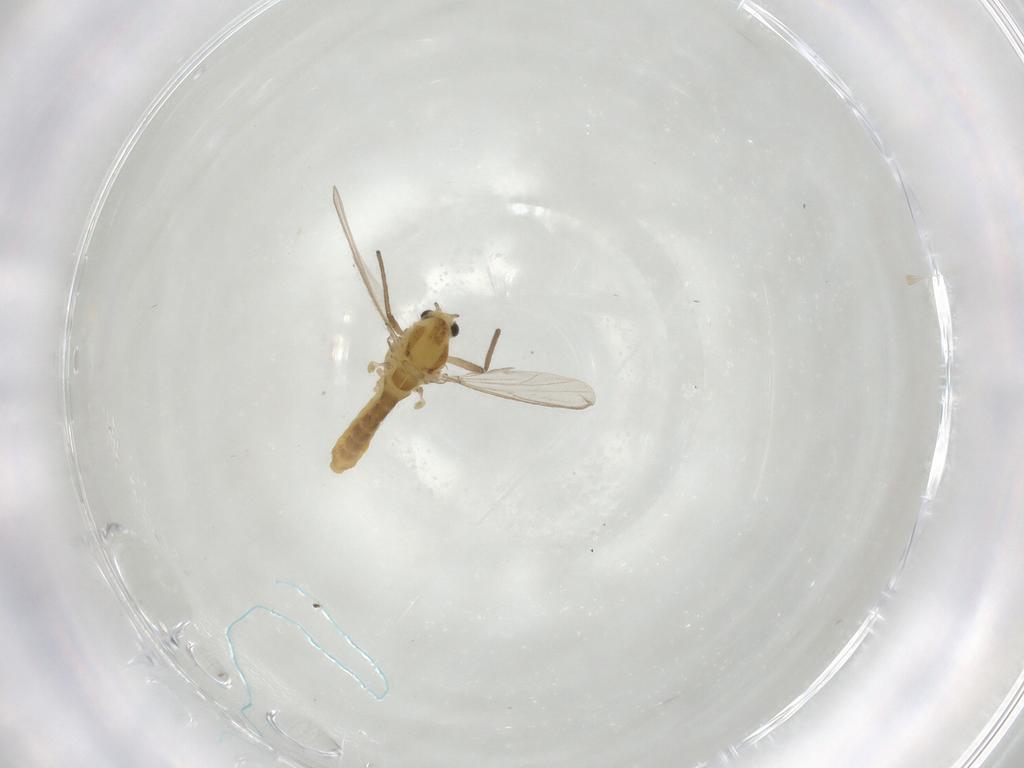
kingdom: Animalia
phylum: Arthropoda
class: Insecta
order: Diptera
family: Chironomidae
